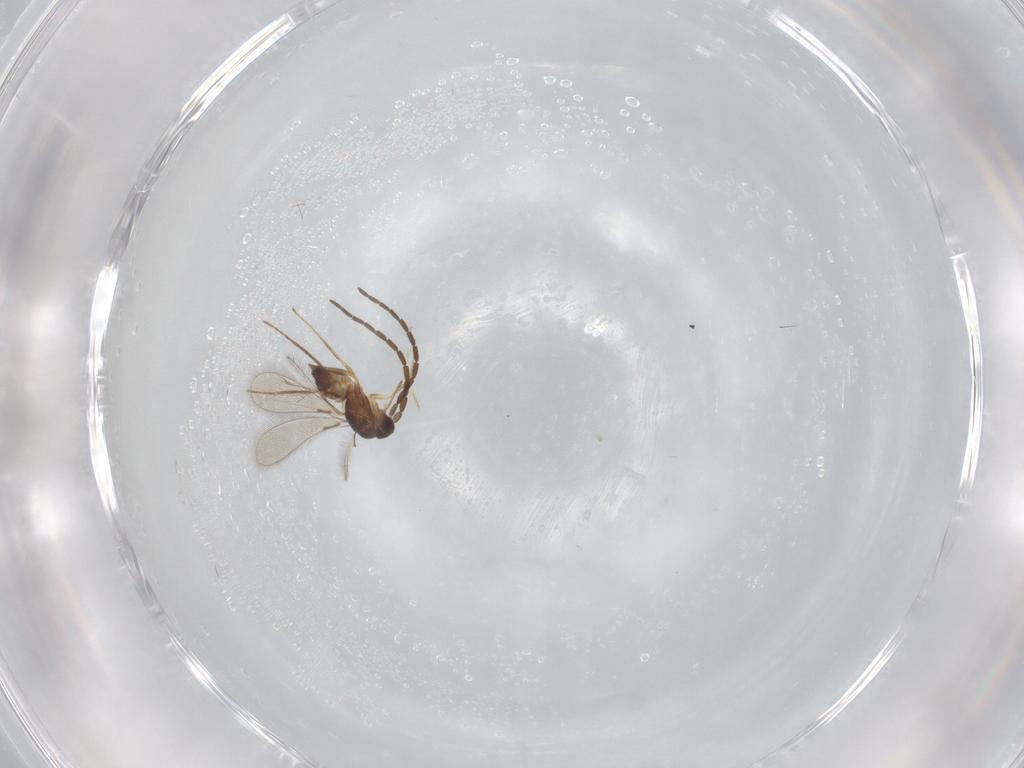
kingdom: Animalia
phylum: Arthropoda
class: Insecta
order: Hymenoptera
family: Mymaridae
